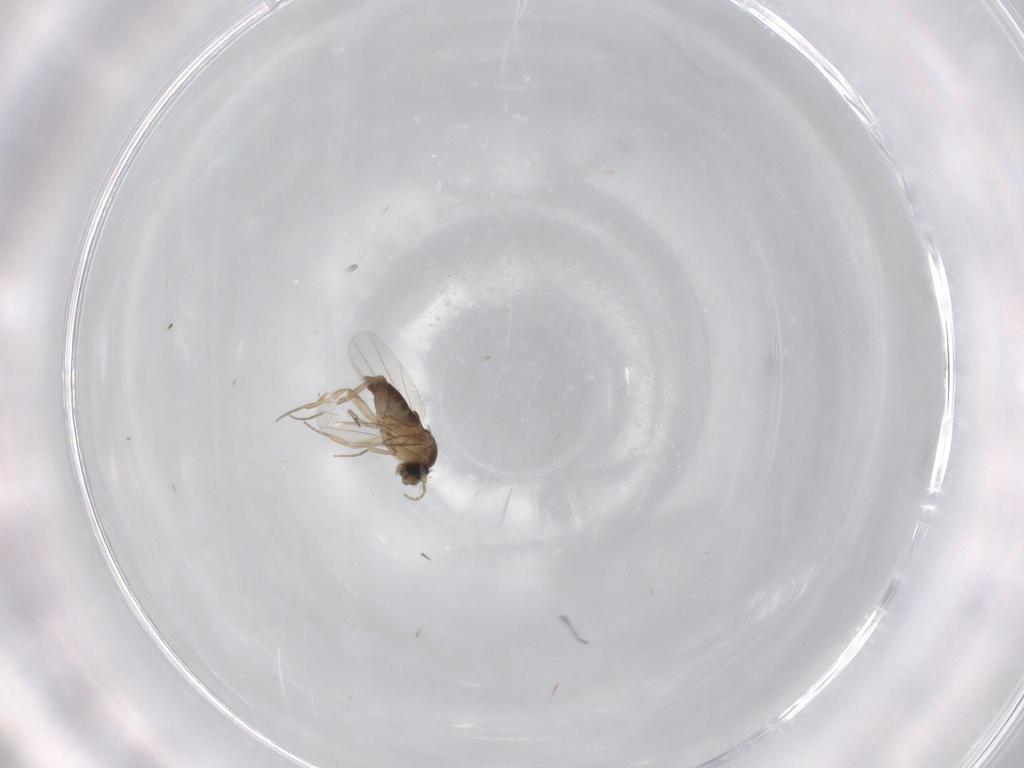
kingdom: Animalia
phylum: Arthropoda
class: Insecta
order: Diptera
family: Phoridae
